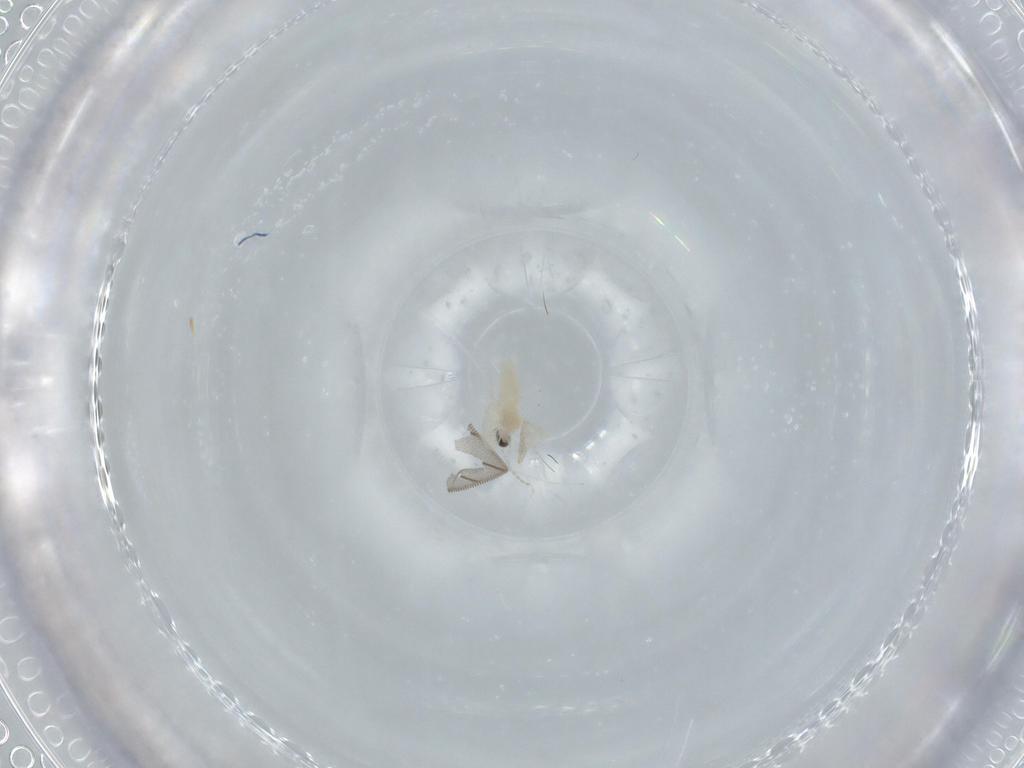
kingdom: Animalia
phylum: Arthropoda
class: Insecta
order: Diptera
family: Cecidomyiidae
